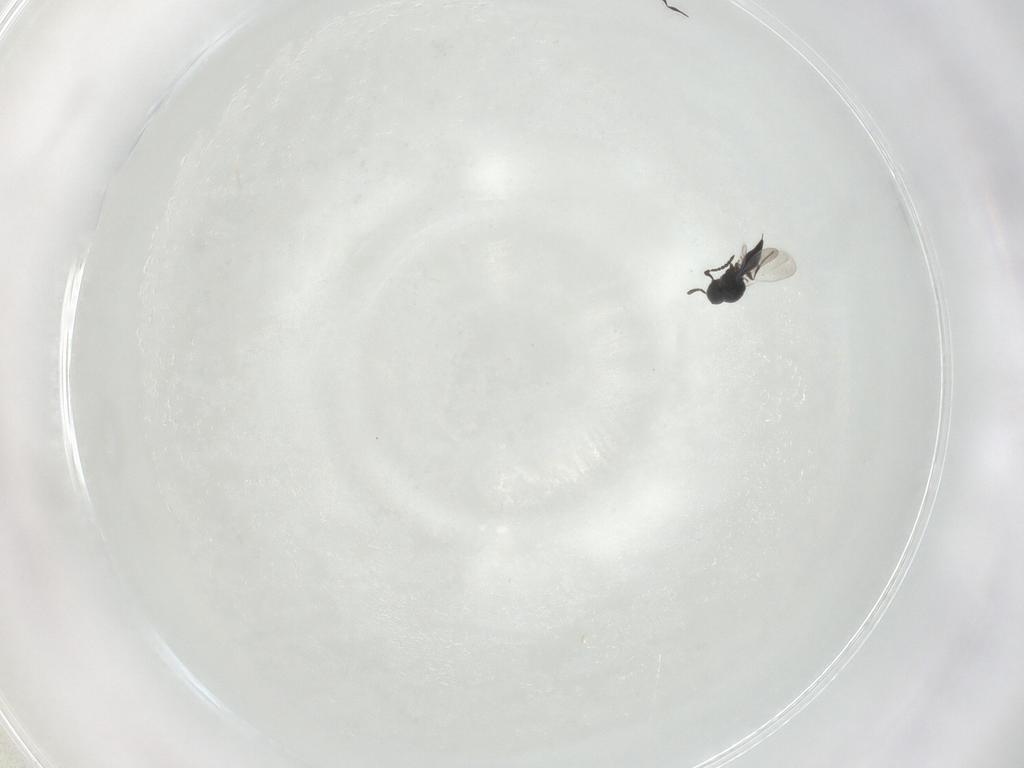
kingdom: Animalia
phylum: Arthropoda
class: Insecta
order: Hymenoptera
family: Platygastridae
